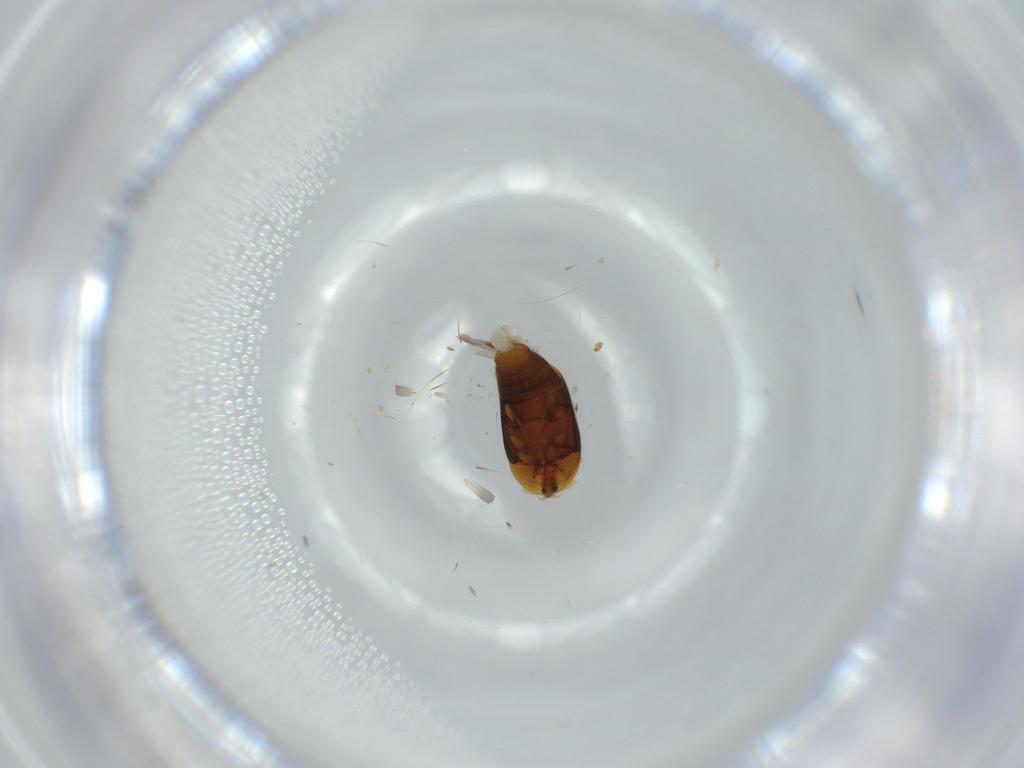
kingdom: Animalia
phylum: Arthropoda
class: Insecta
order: Coleoptera
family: Corylophidae
